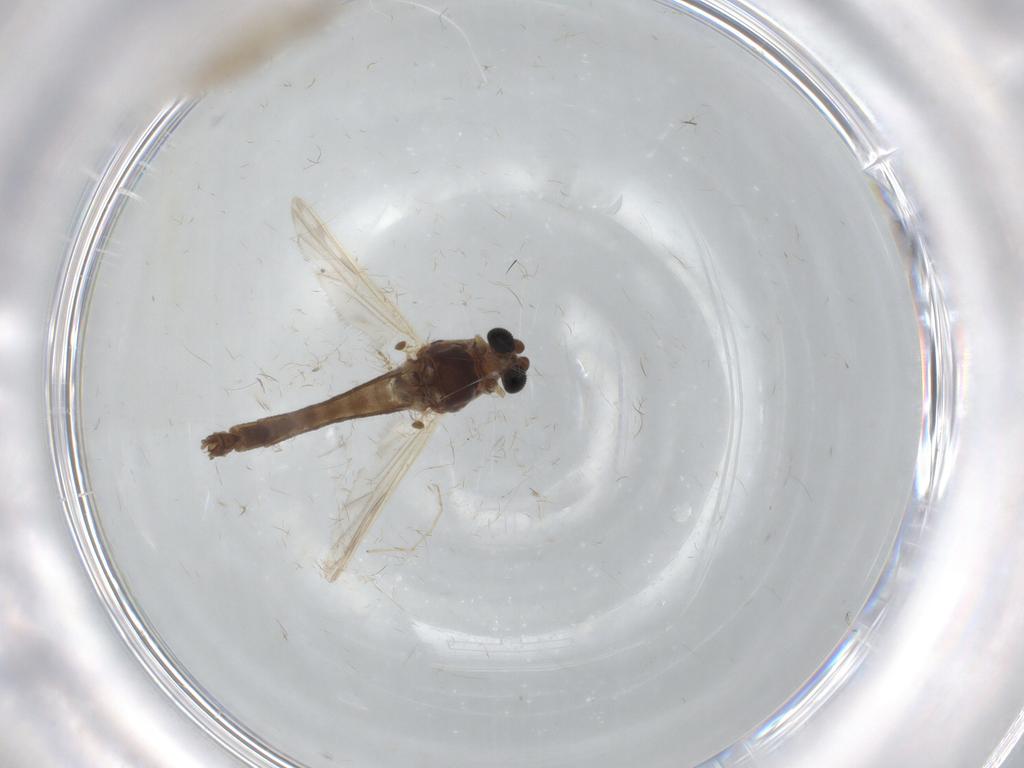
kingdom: Animalia
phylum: Arthropoda
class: Insecta
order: Diptera
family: Chironomidae
